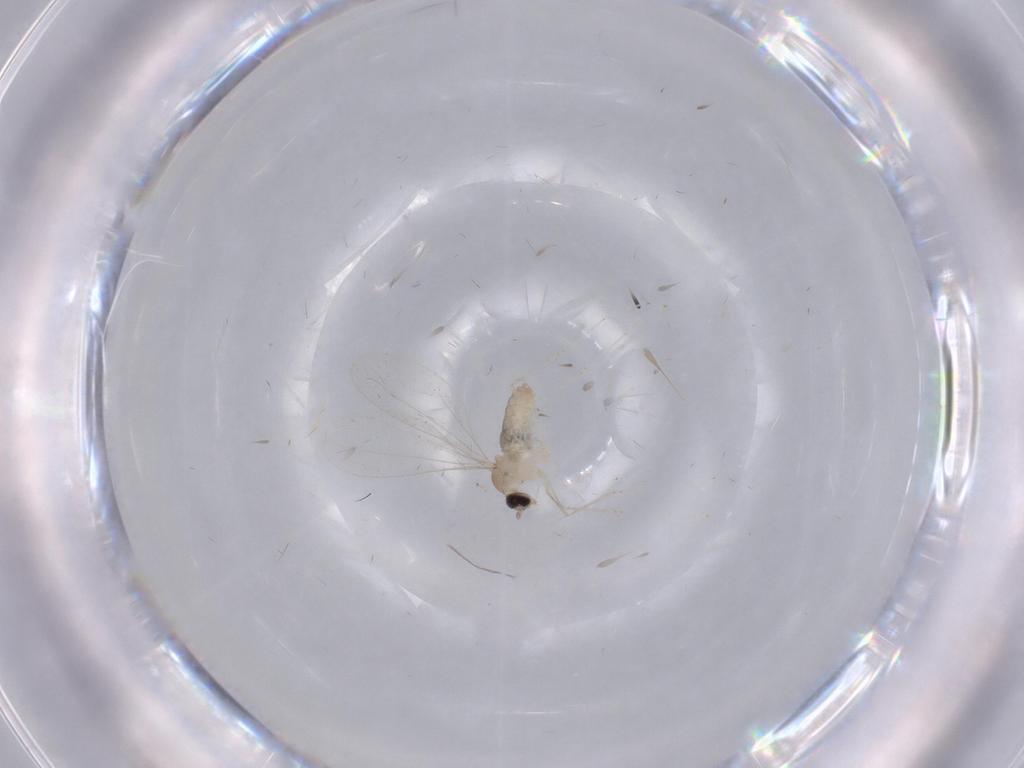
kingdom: Animalia
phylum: Arthropoda
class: Insecta
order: Diptera
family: Cecidomyiidae
